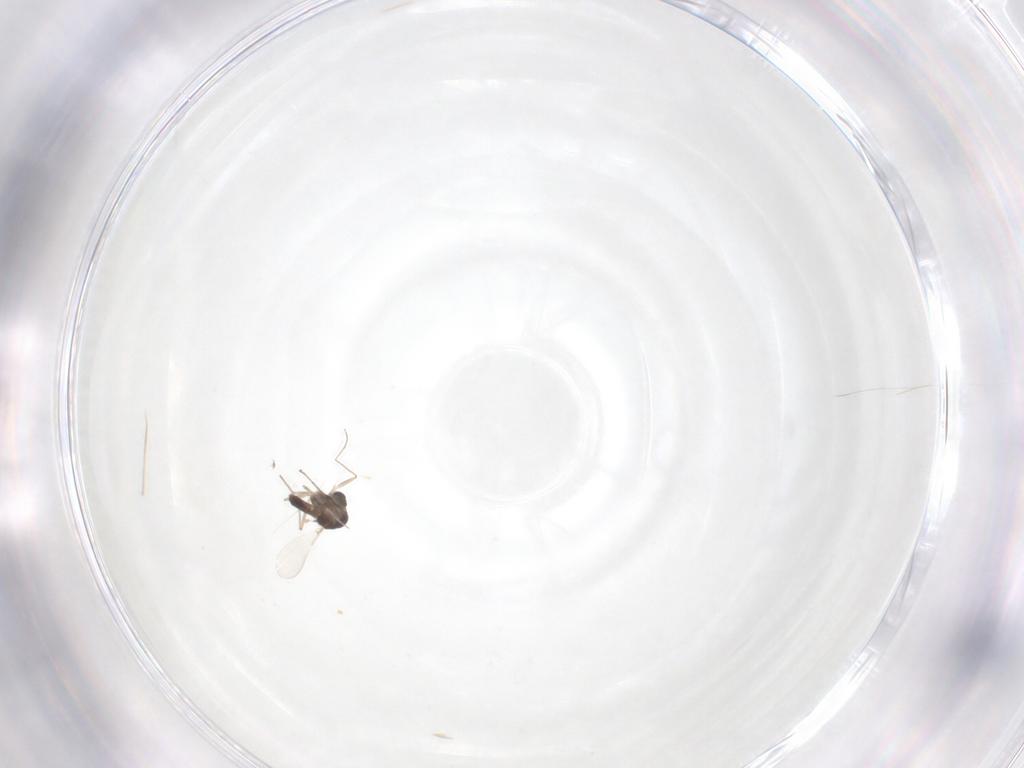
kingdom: Animalia
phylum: Arthropoda
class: Insecta
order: Diptera
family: Chironomidae
